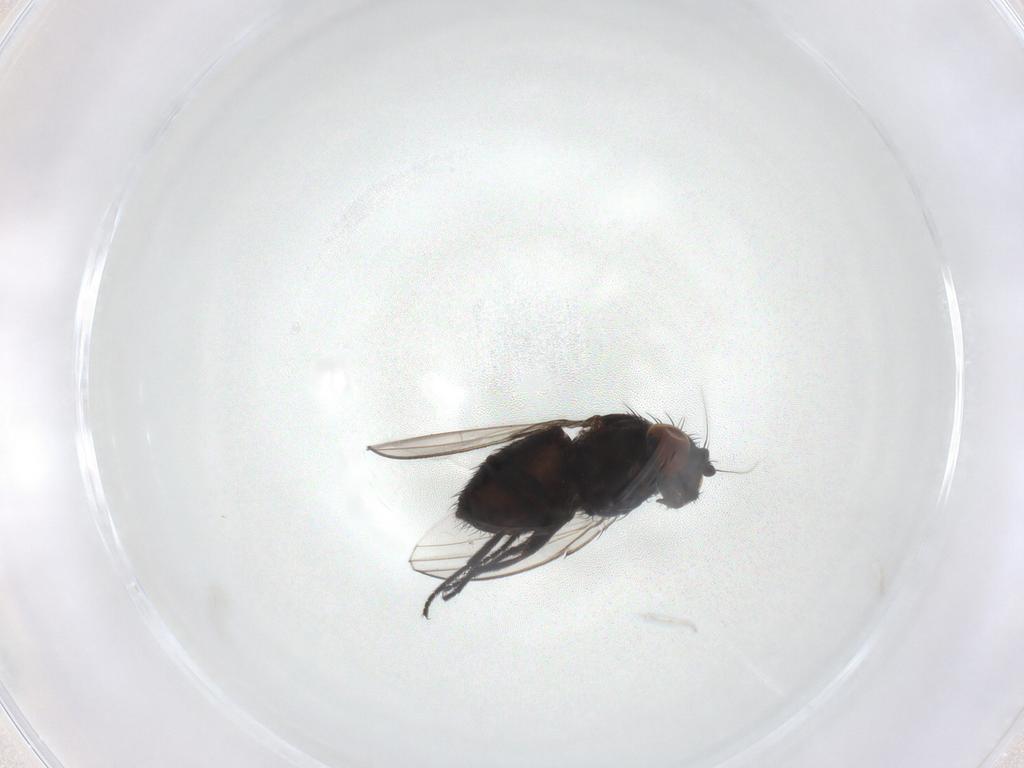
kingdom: Animalia
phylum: Arthropoda
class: Insecta
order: Diptera
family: Milichiidae
